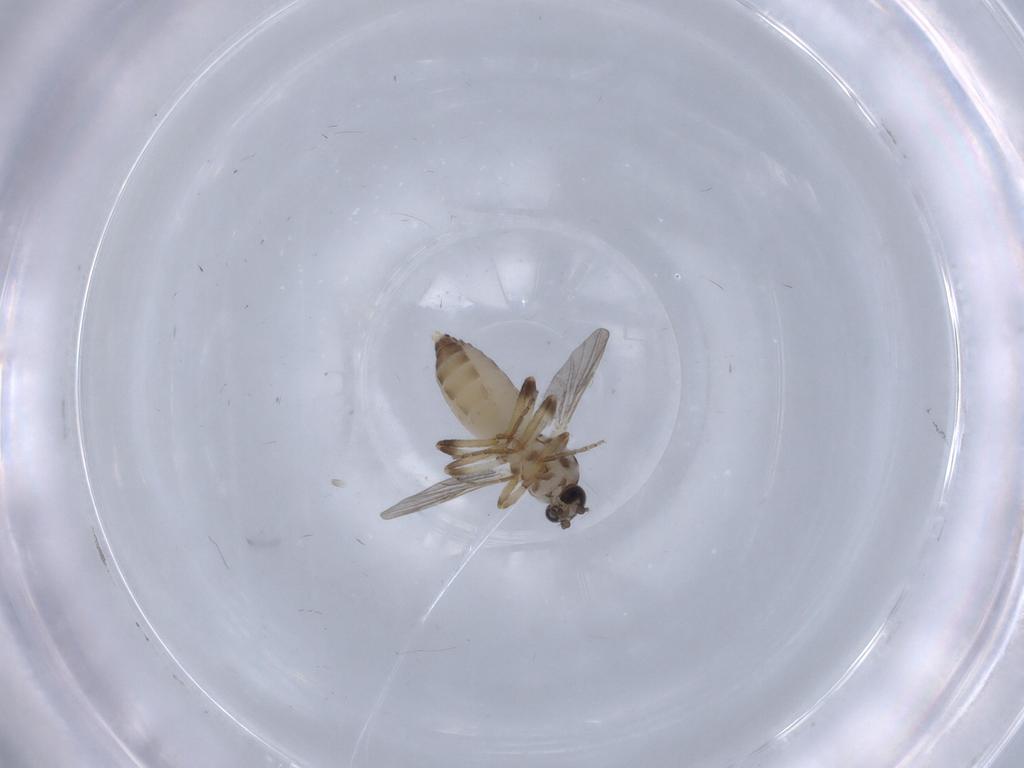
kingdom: Animalia
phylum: Arthropoda
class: Insecta
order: Diptera
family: Ceratopogonidae
